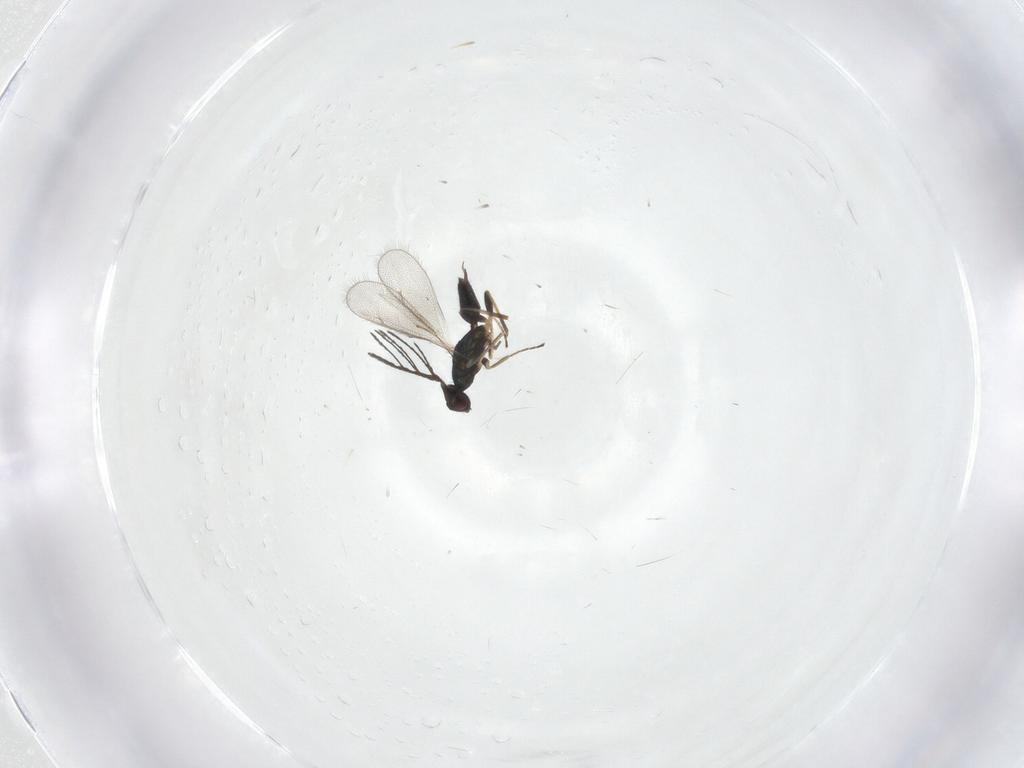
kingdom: Animalia
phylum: Arthropoda
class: Insecta
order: Hymenoptera
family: Eulophidae
